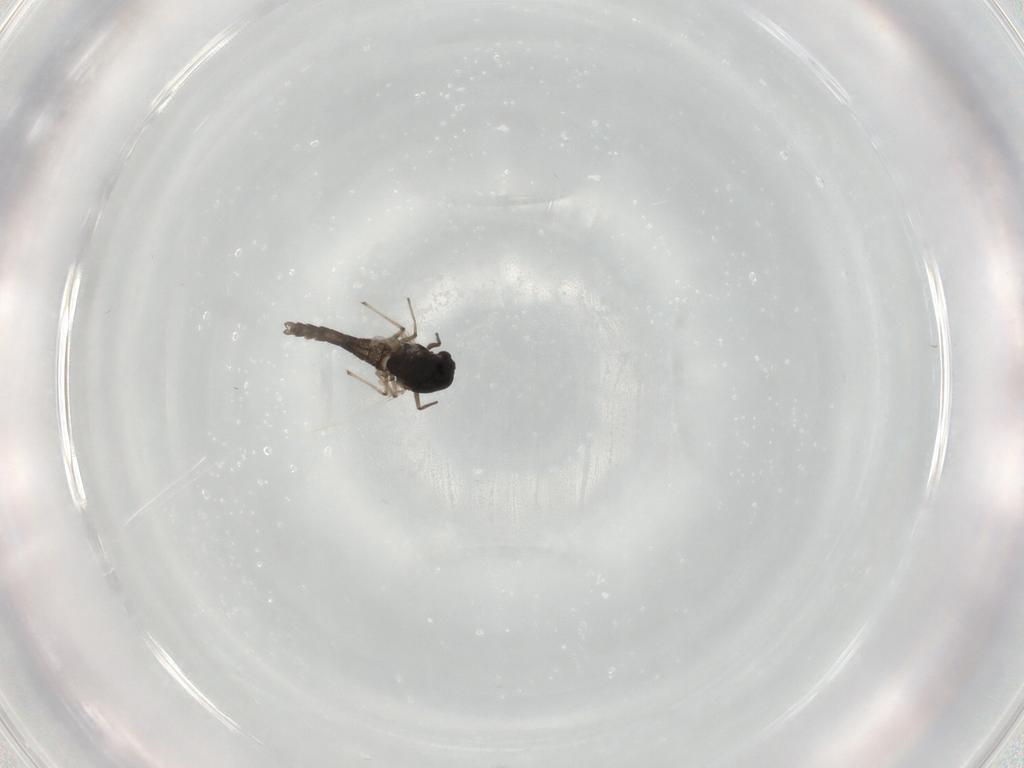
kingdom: Animalia
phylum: Arthropoda
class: Insecta
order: Diptera
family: Chironomidae
